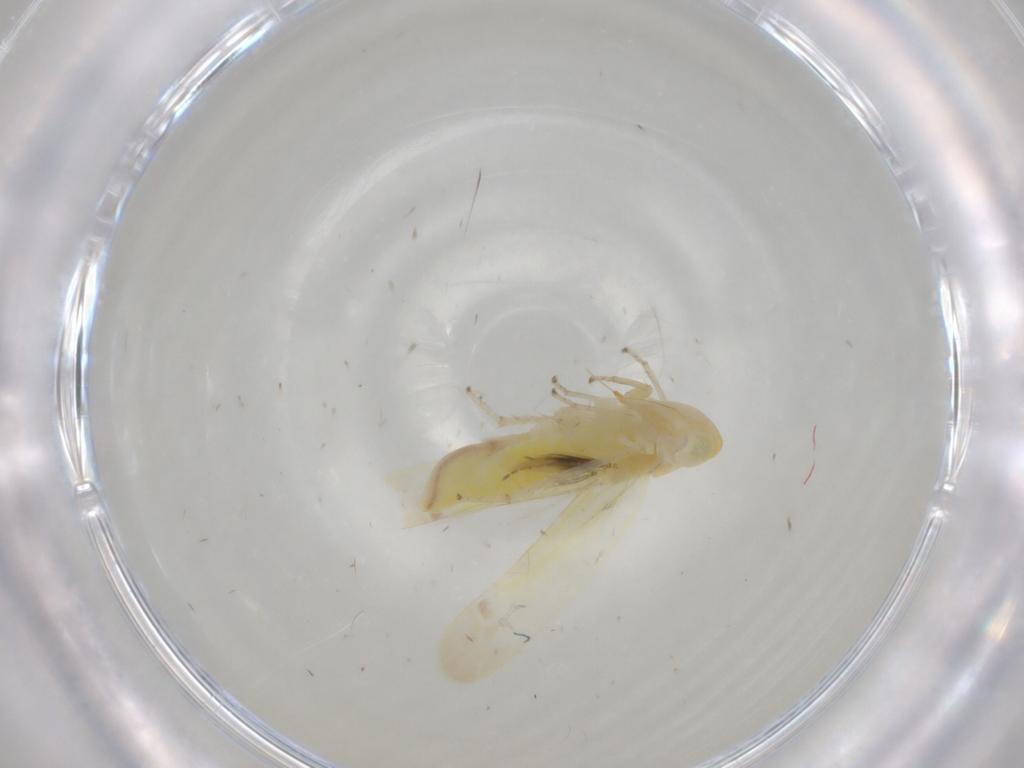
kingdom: Animalia
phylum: Arthropoda
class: Insecta
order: Hemiptera
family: Cicadellidae
